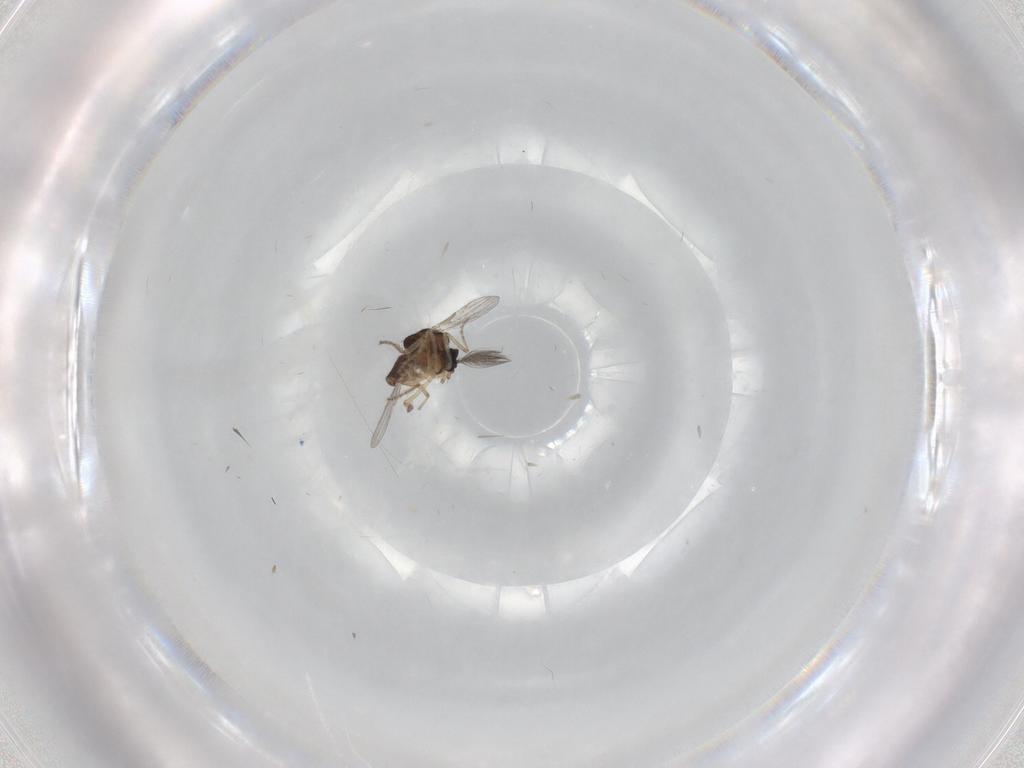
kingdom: Animalia
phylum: Arthropoda
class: Insecta
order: Diptera
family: Ceratopogonidae
